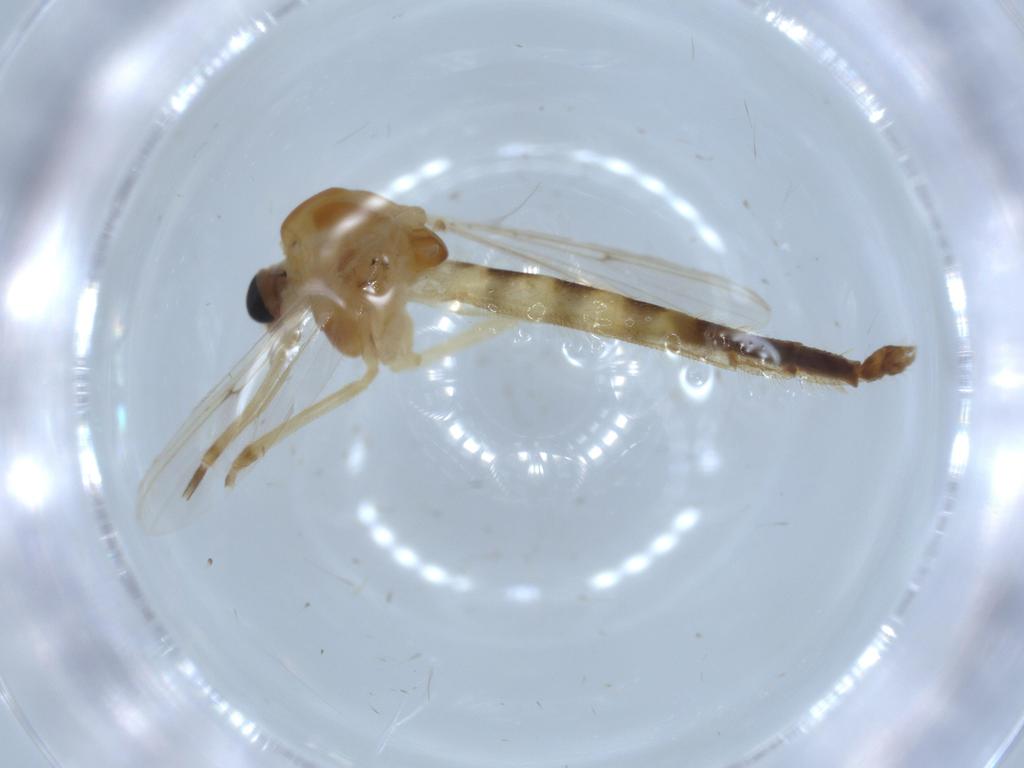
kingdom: Animalia
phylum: Arthropoda
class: Insecta
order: Diptera
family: Chironomidae
